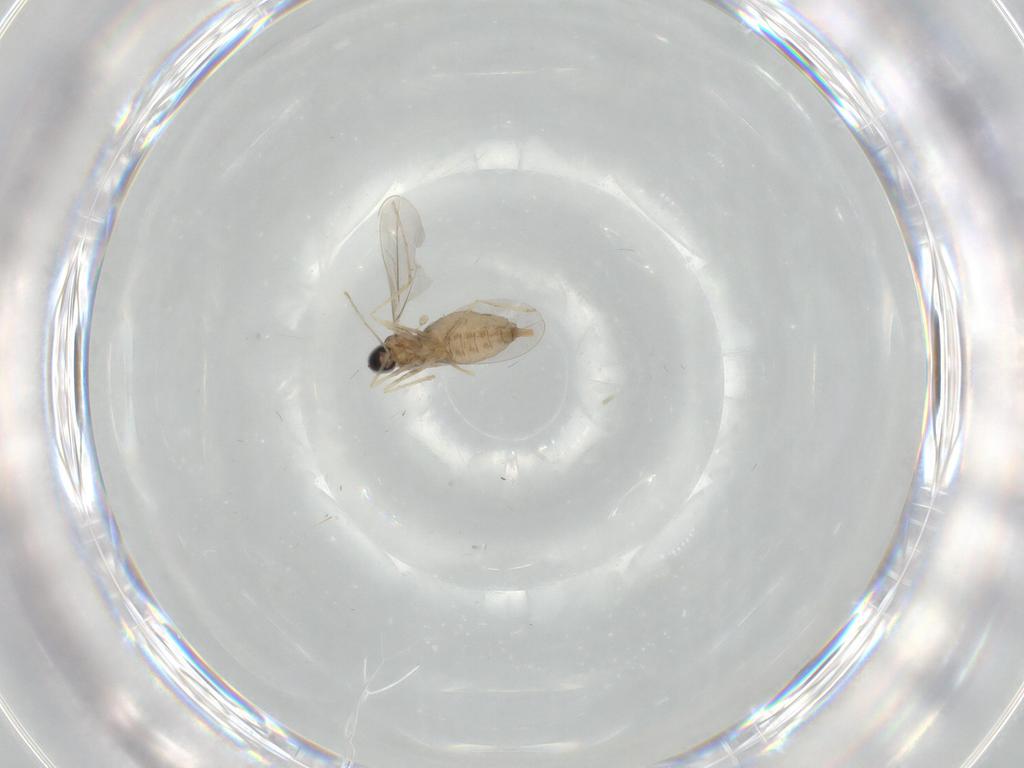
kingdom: Animalia
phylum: Arthropoda
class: Insecta
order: Diptera
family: Cecidomyiidae
